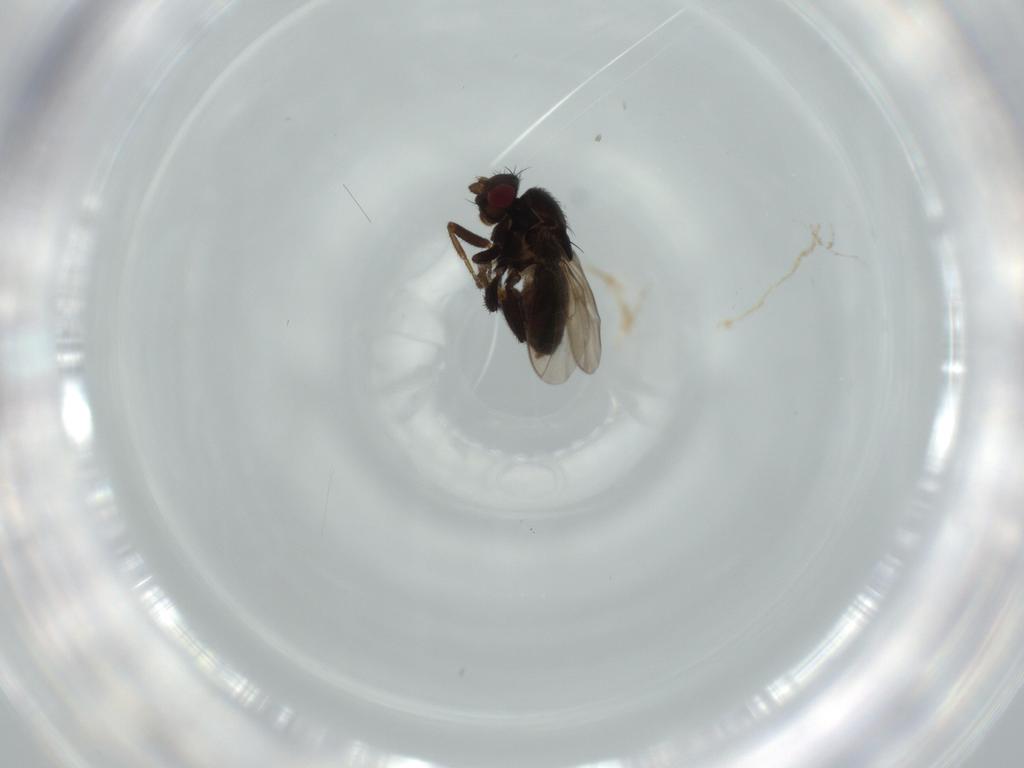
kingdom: Animalia
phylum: Arthropoda
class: Insecta
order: Diptera
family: Sphaeroceridae
